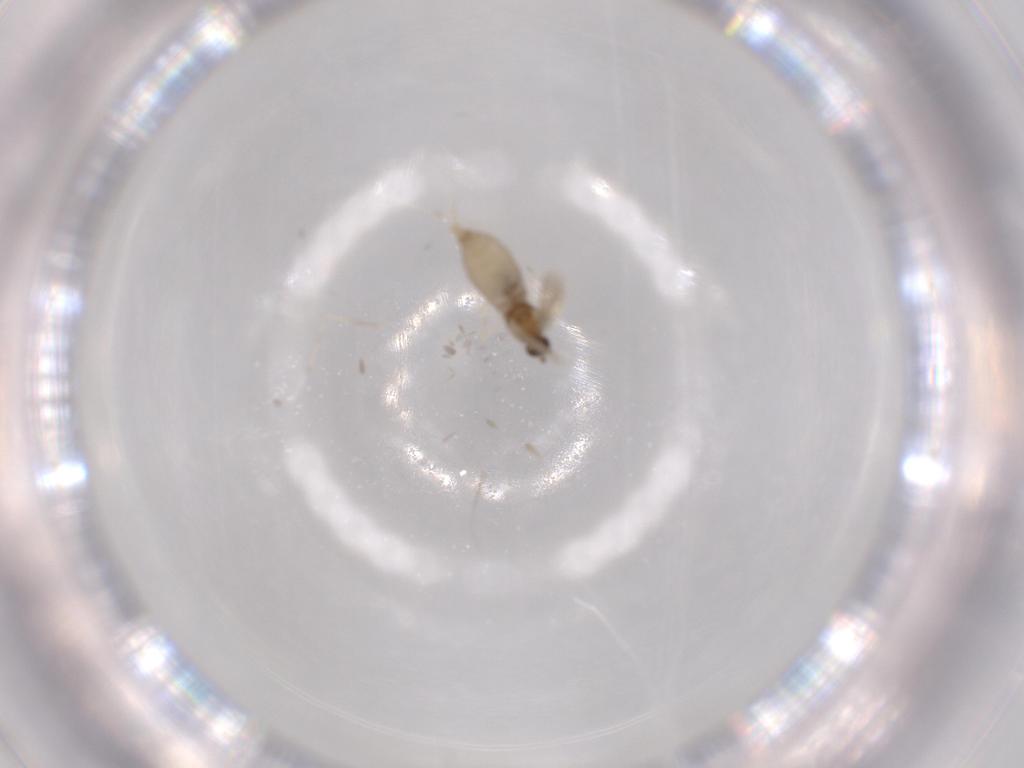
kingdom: Animalia
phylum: Arthropoda
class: Insecta
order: Diptera
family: Cecidomyiidae
